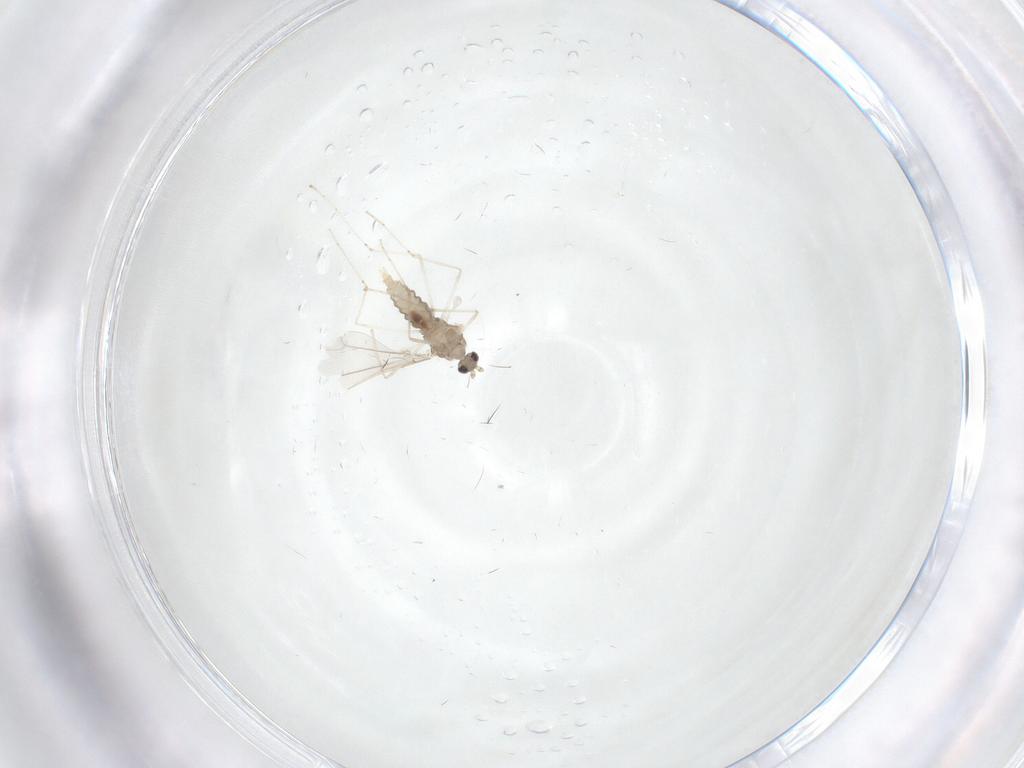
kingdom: Animalia
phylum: Arthropoda
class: Insecta
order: Diptera
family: Cecidomyiidae
